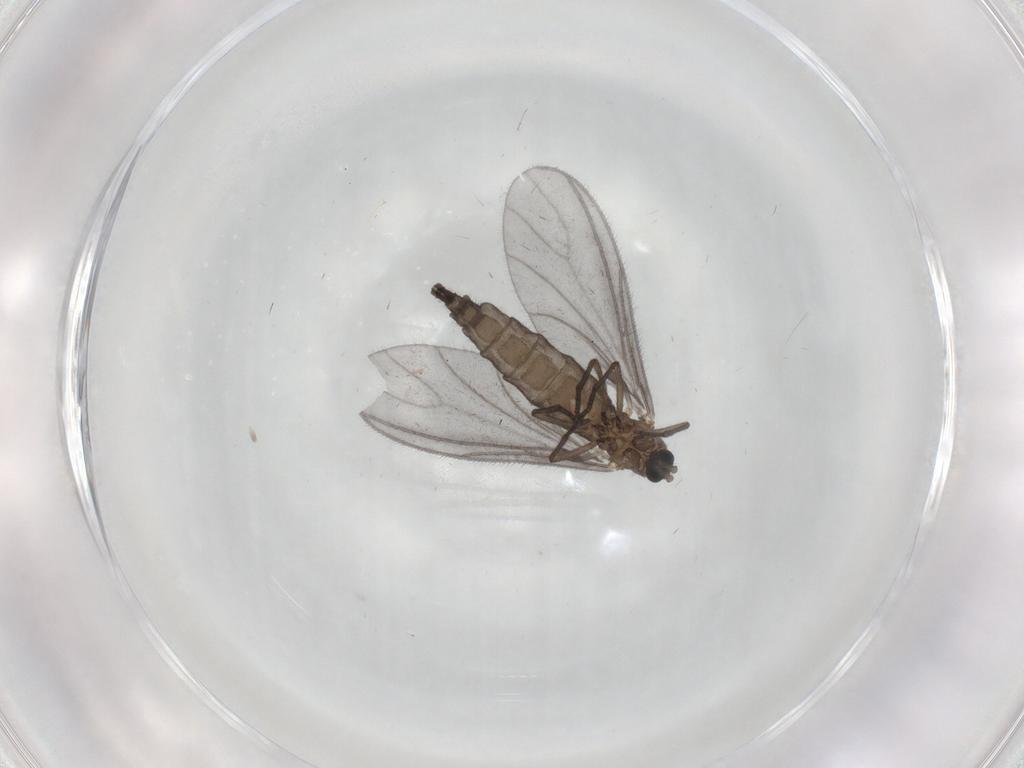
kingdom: Animalia
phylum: Arthropoda
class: Insecta
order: Diptera
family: Sciaridae
